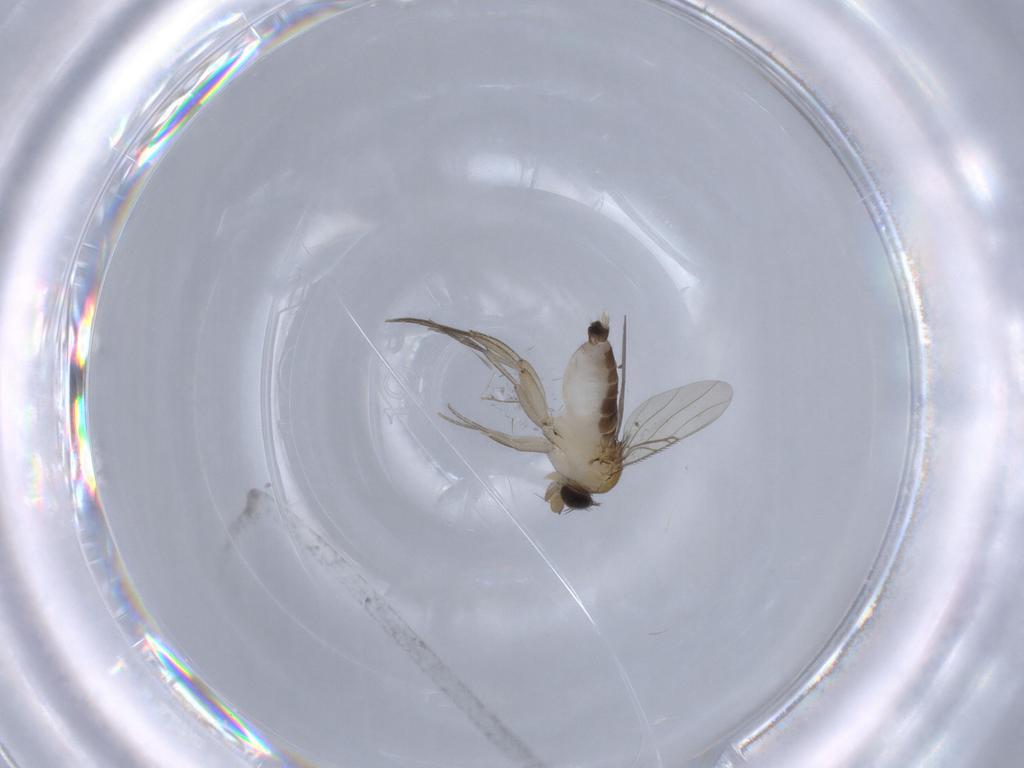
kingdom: Animalia
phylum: Arthropoda
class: Insecta
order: Diptera
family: Phoridae
